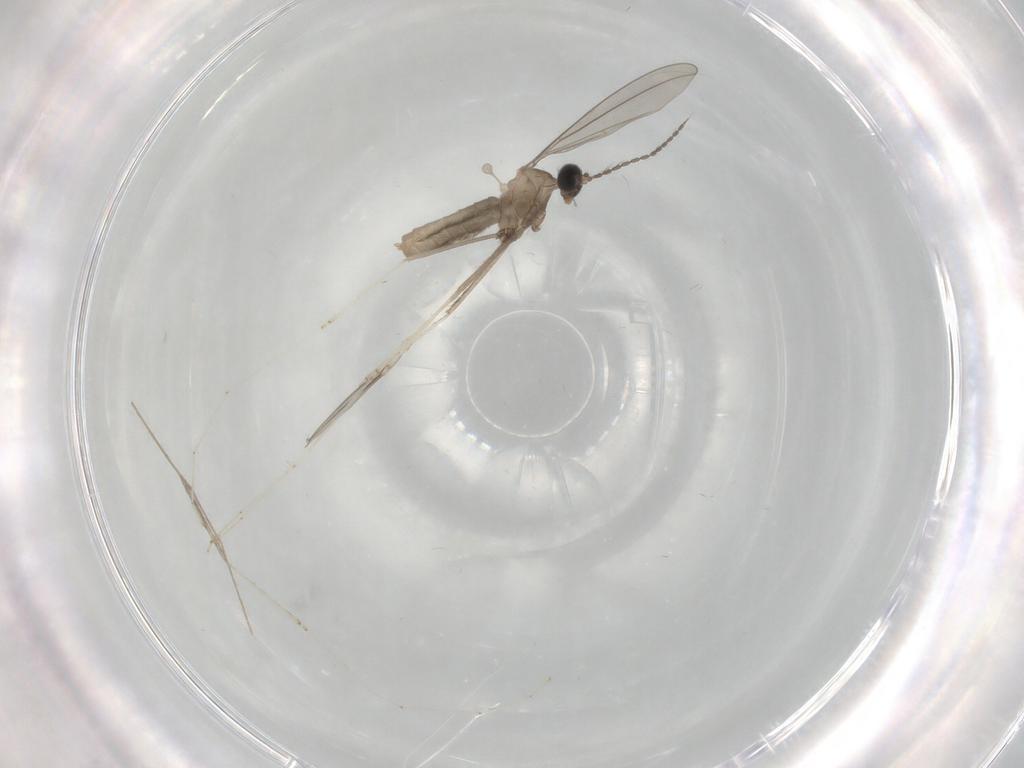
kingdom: Animalia
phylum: Arthropoda
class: Insecta
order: Diptera
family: Cecidomyiidae
